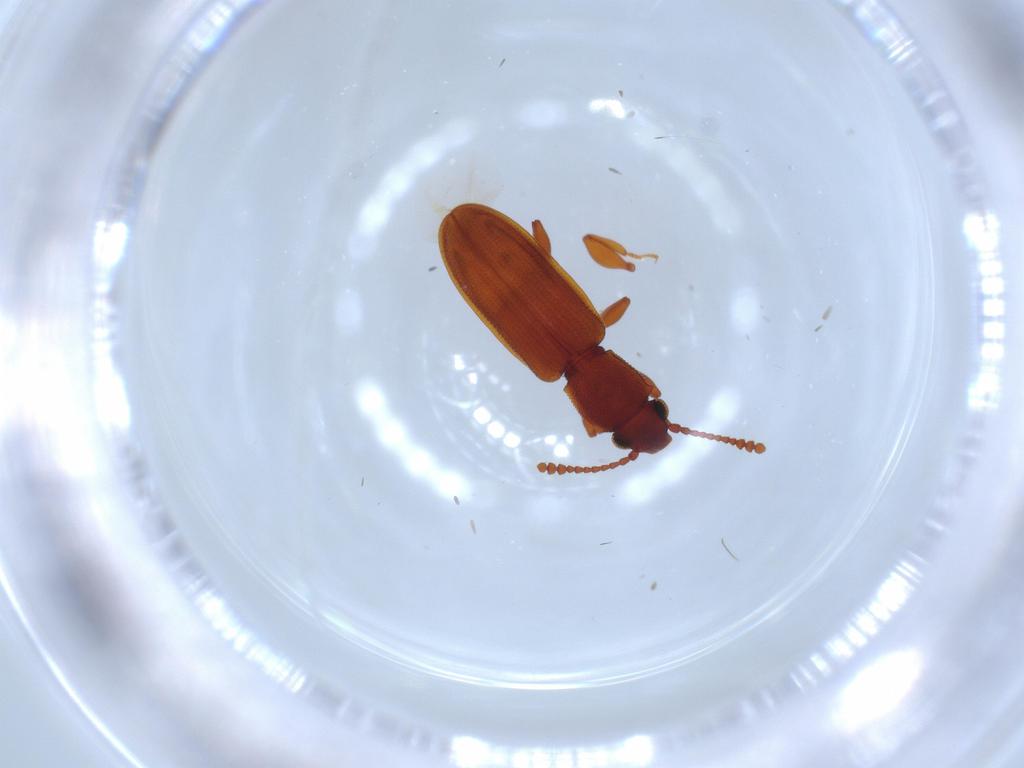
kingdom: Animalia
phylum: Arthropoda
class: Insecta
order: Coleoptera
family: Silvanidae
